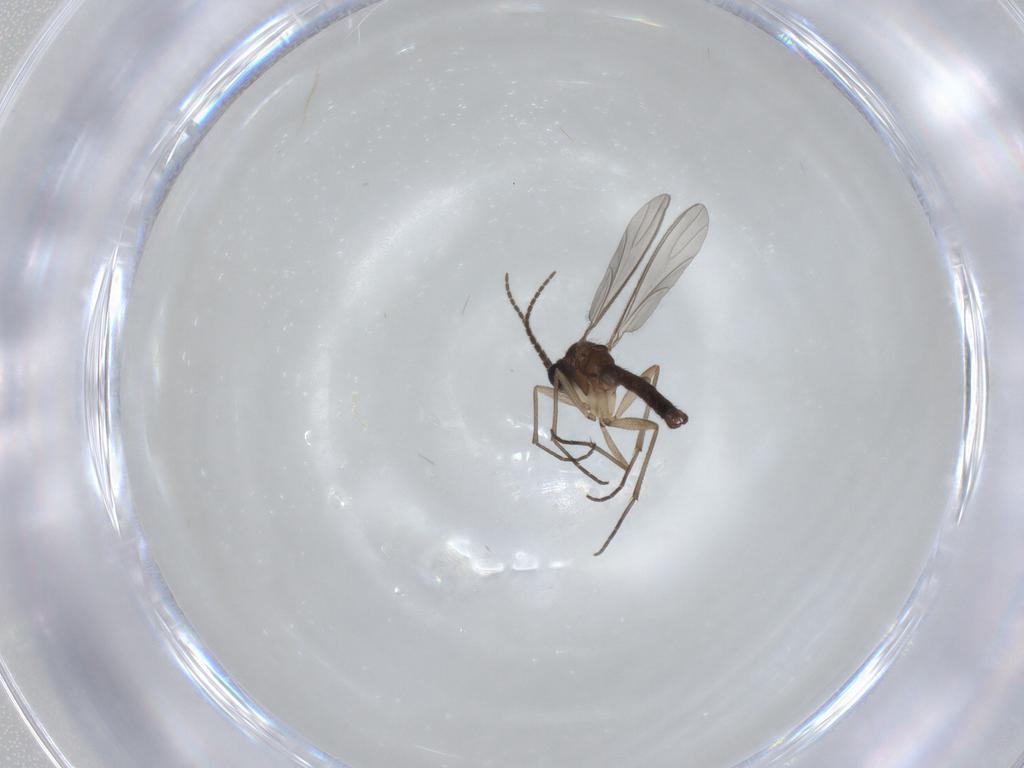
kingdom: Animalia
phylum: Arthropoda
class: Insecta
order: Diptera
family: Sciaridae
